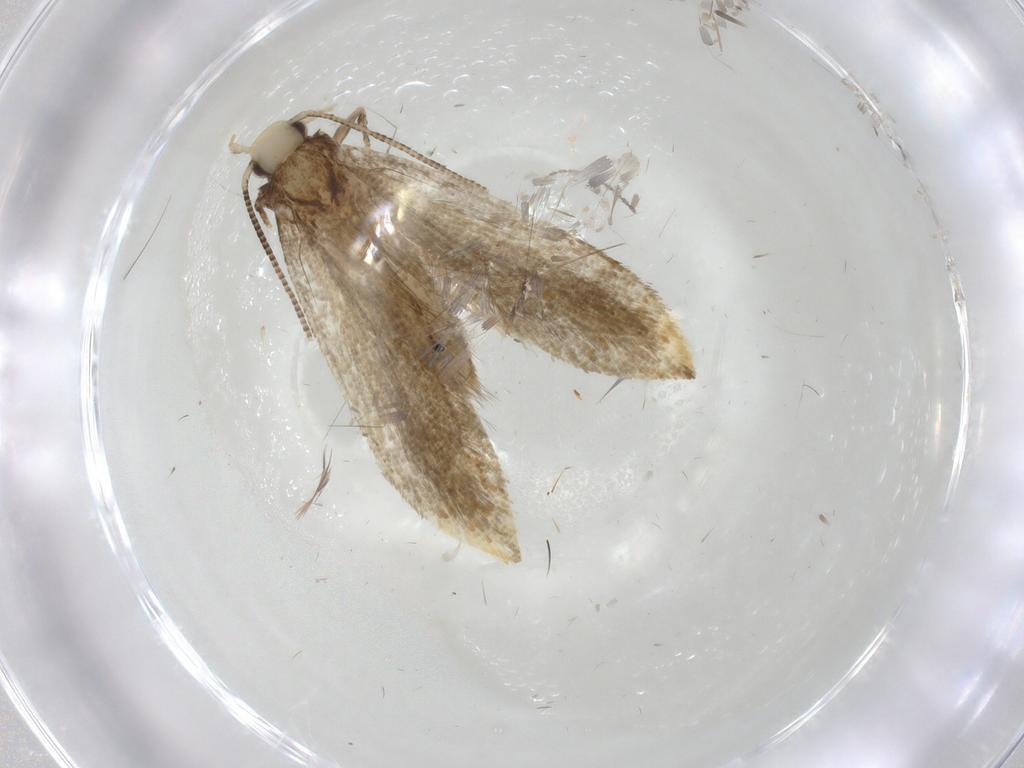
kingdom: Animalia
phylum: Arthropoda
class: Insecta
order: Lepidoptera
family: Pieridae
